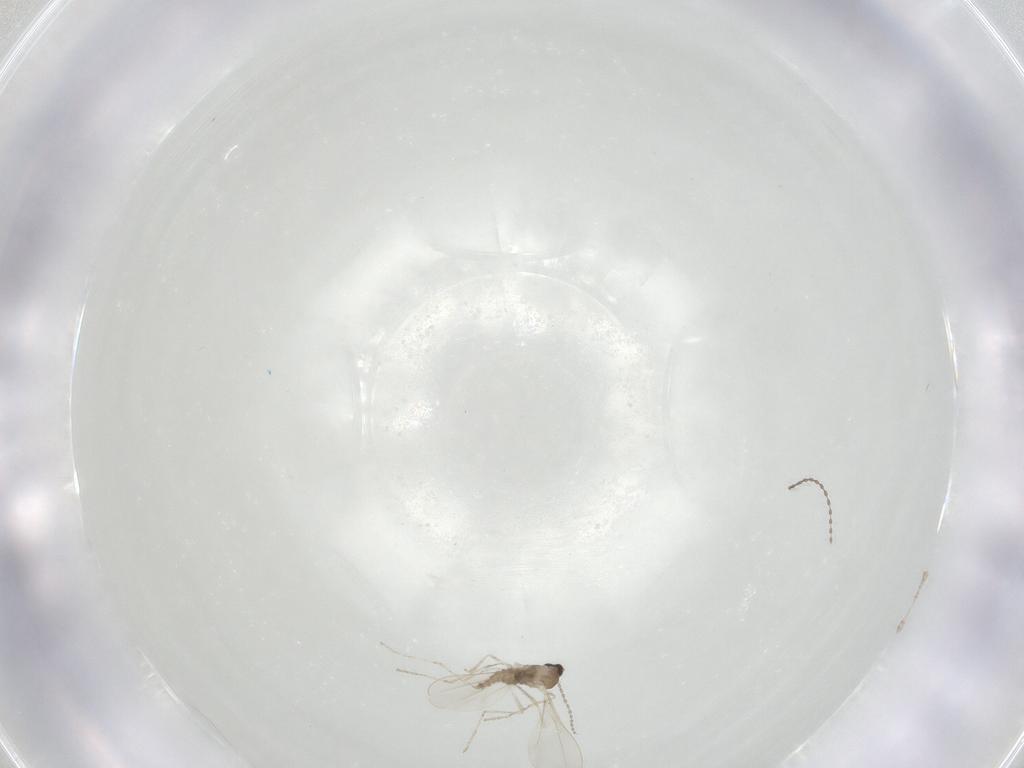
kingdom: Animalia
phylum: Arthropoda
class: Insecta
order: Diptera
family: Cecidomyiidae
